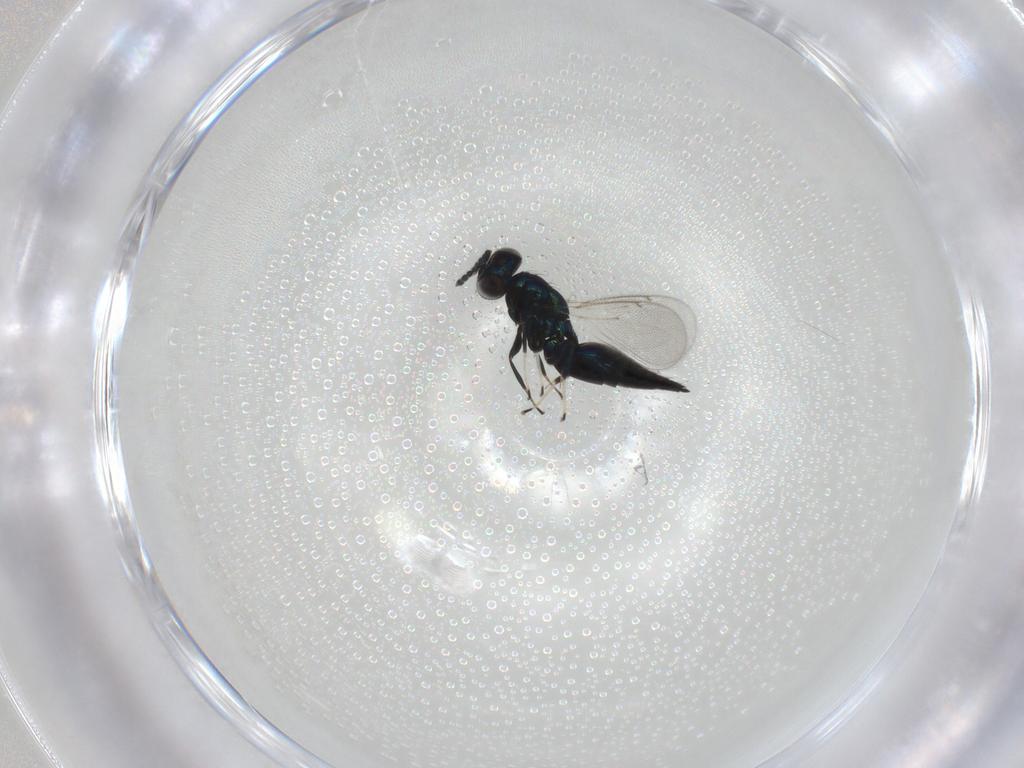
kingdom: Animalia
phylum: Arthropoda
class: Insecta
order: Hymenoptera
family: Eulophidae
